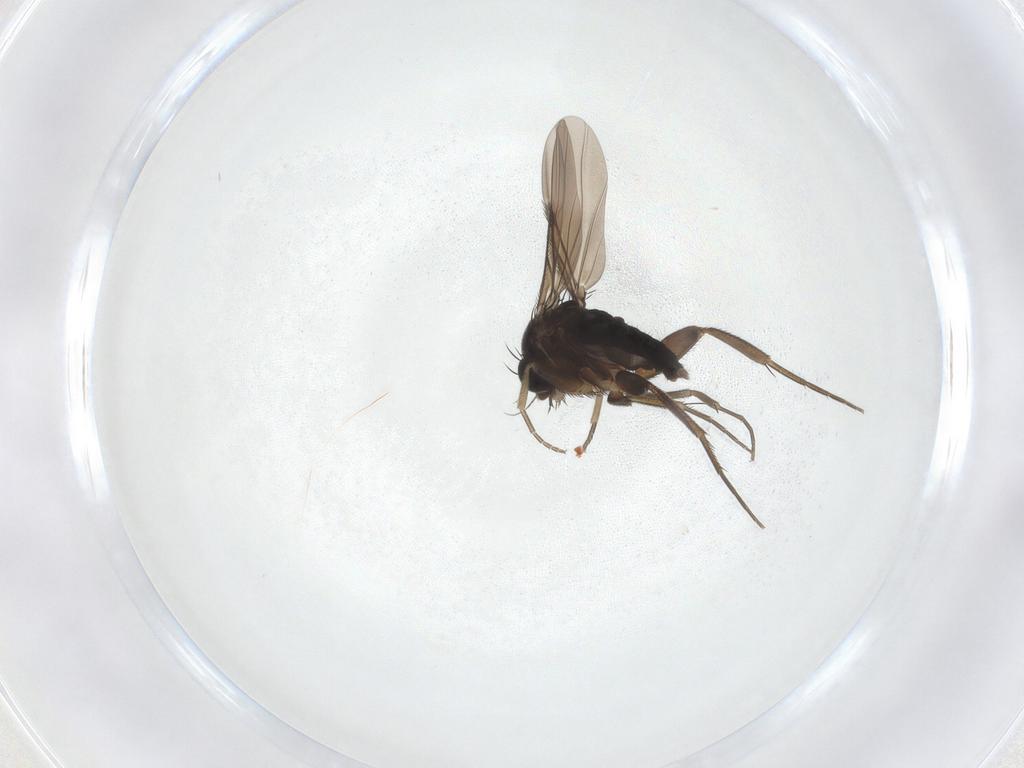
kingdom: Animalia
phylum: Arthropoda
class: Insecta
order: Diptera
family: Phoridae
